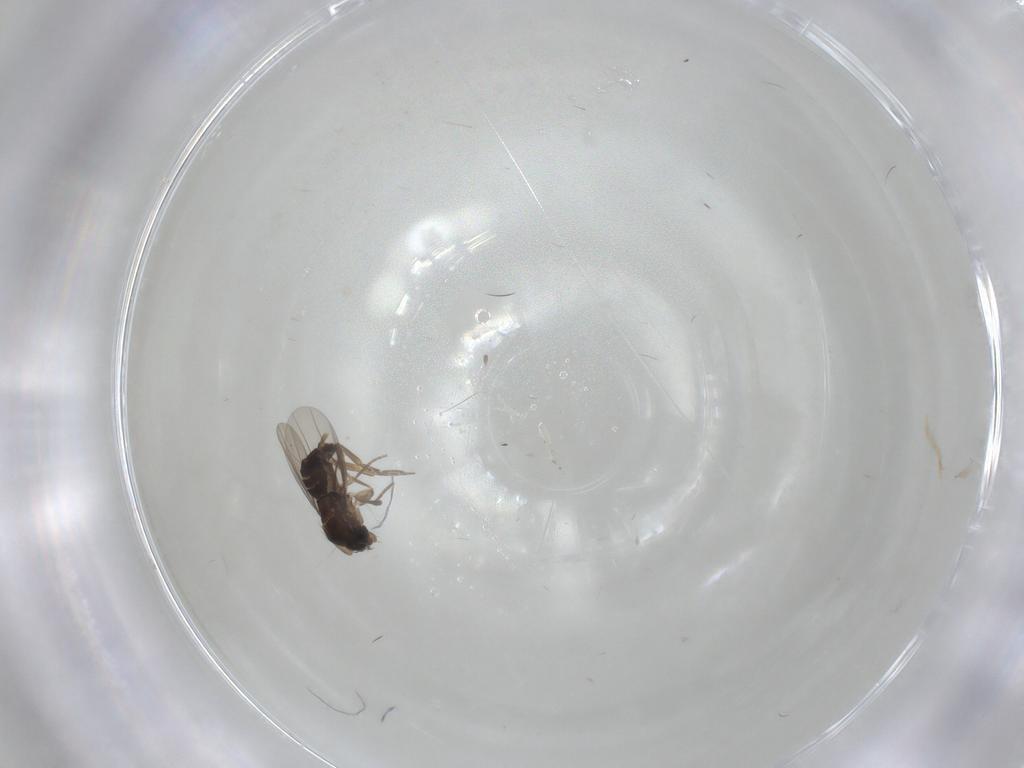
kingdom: Animalia
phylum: Arthropoda
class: Insecta
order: Diptera
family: Phoridae
